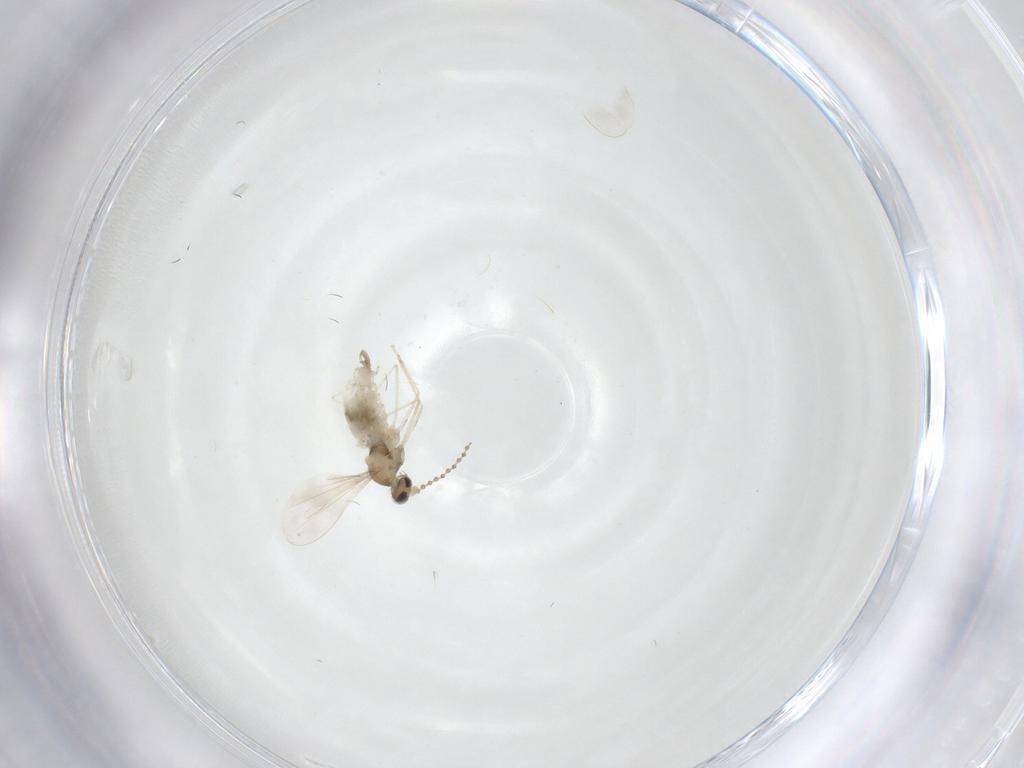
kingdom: Animalia
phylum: Arthropoda
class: Insecta
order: Diptera
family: Cecidomyiidae
